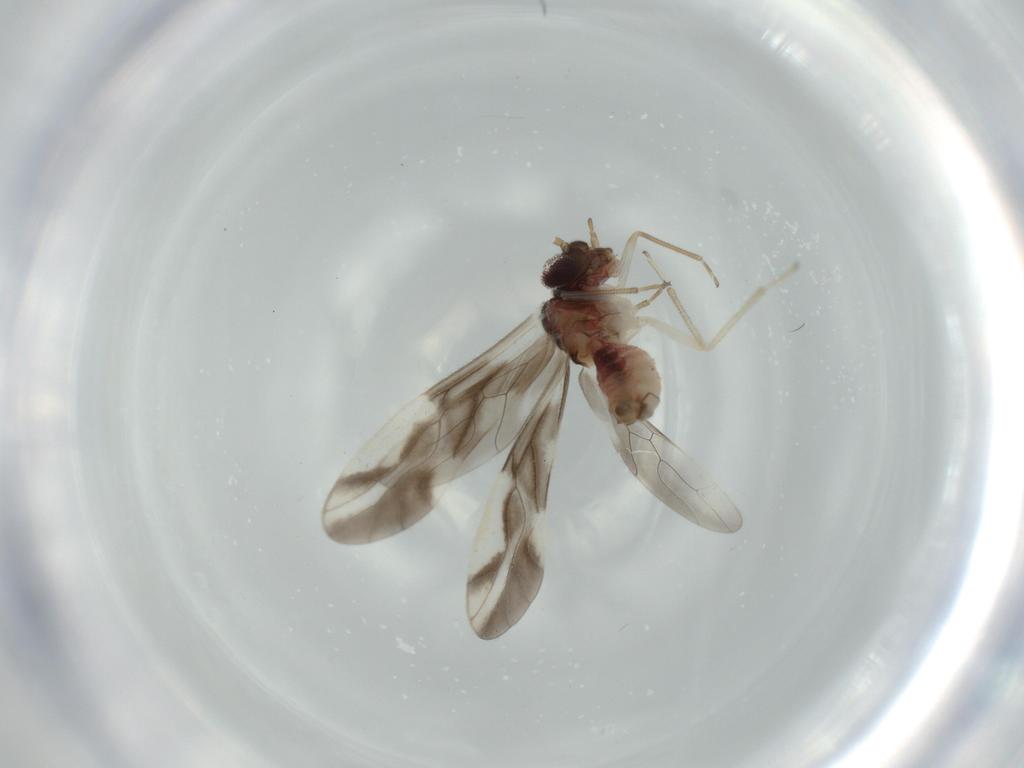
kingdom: Animalia
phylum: Arthropoda
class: Insecta
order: Psocodea
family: Caeciliusidae
